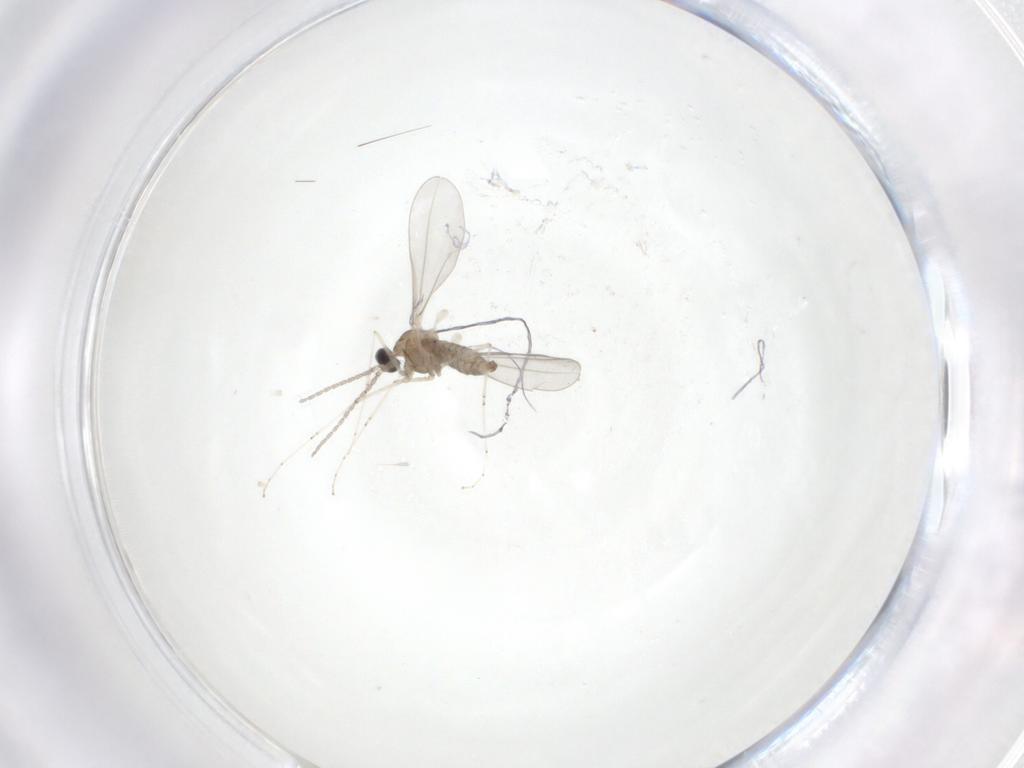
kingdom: Animalia
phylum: Arthropoda
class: Insecta
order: Diptera
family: Cecidomyiidae
